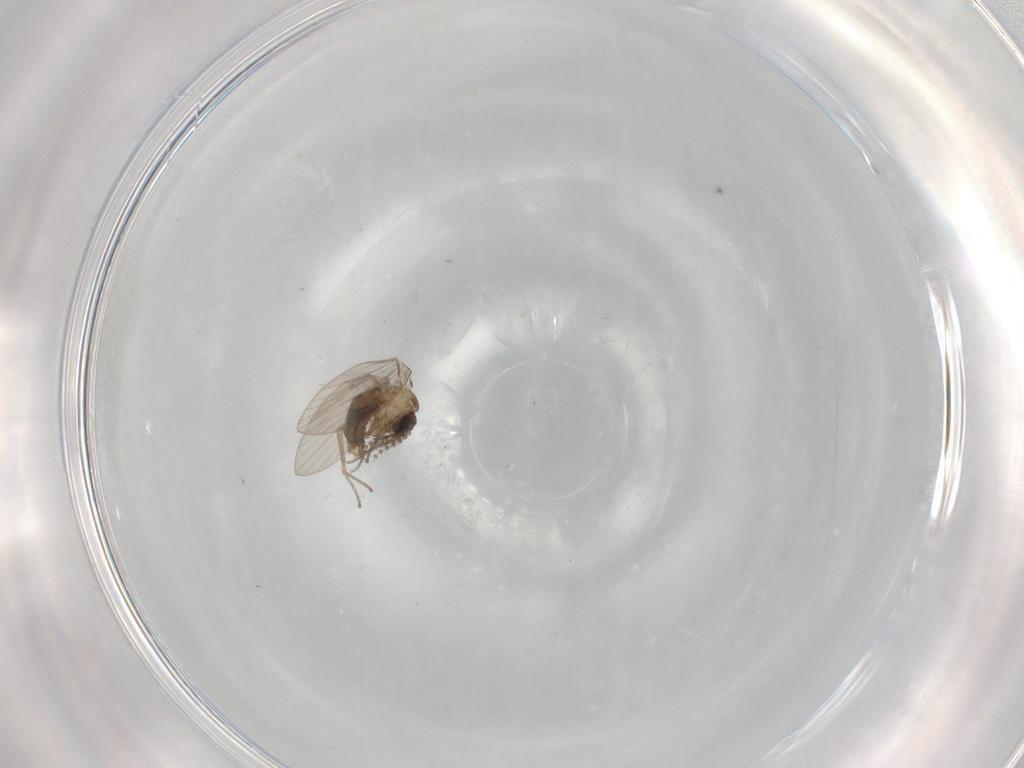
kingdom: Animalia
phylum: Arthropoda
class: Insecta
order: Diptera
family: Psychodidae
